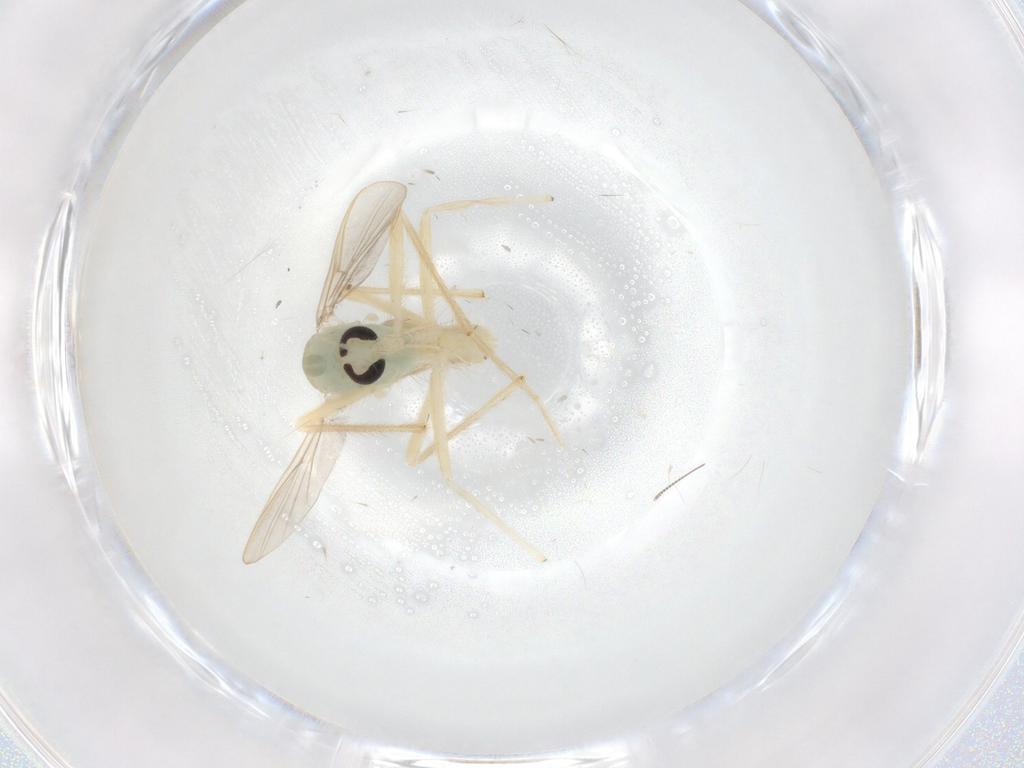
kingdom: Animalia
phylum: Arthropoda
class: Insecta
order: Diptera
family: Chironomidae
